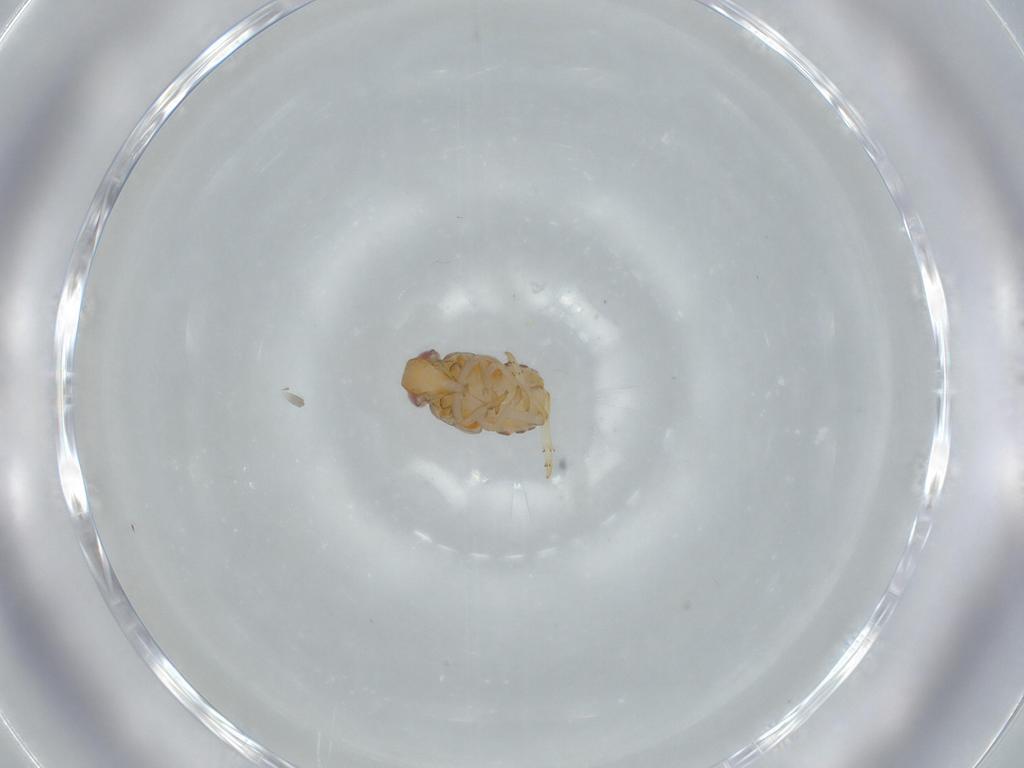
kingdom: Animalia
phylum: Arthropoda
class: Insecta
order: Hemiptera
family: Issidae
